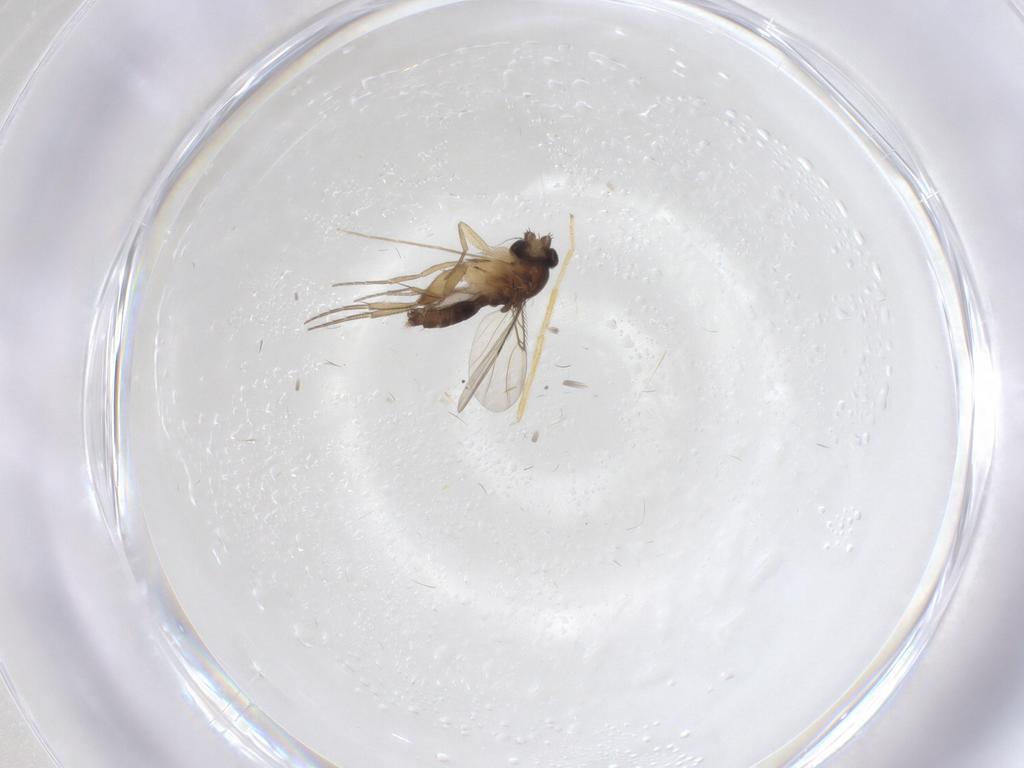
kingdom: Animalia
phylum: Arthropoda
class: Insecta
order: Diptera
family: Phoridae
